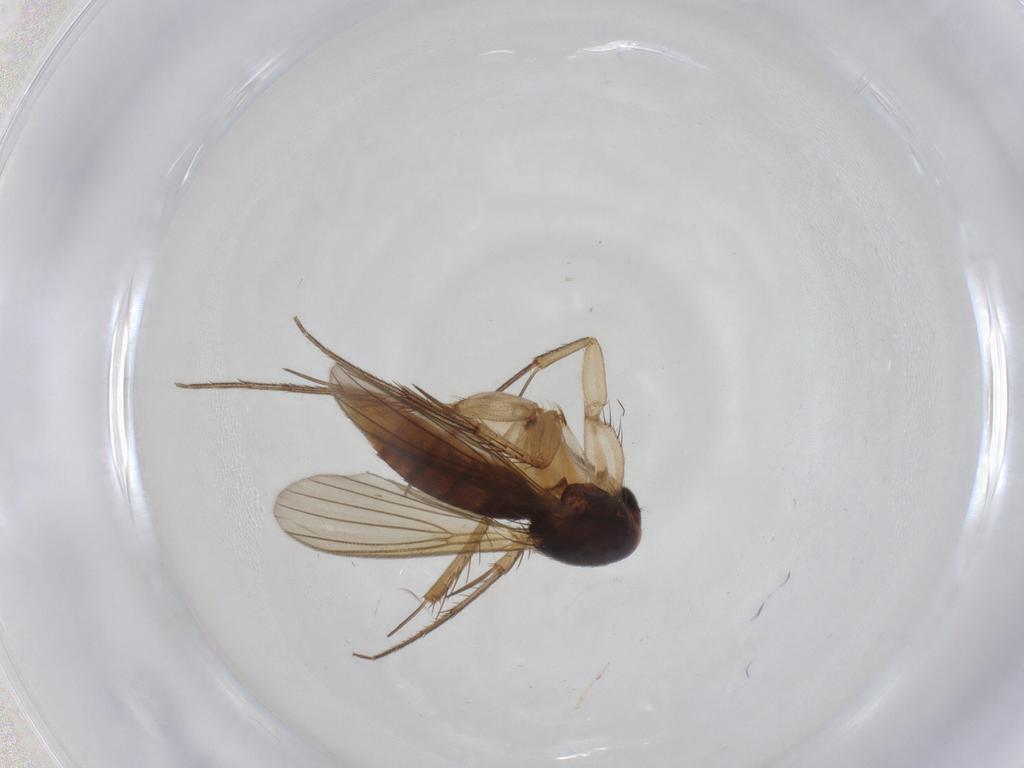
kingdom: Animalia
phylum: Arthropoda
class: Insecta
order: Diptera
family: Mycetophilidae
